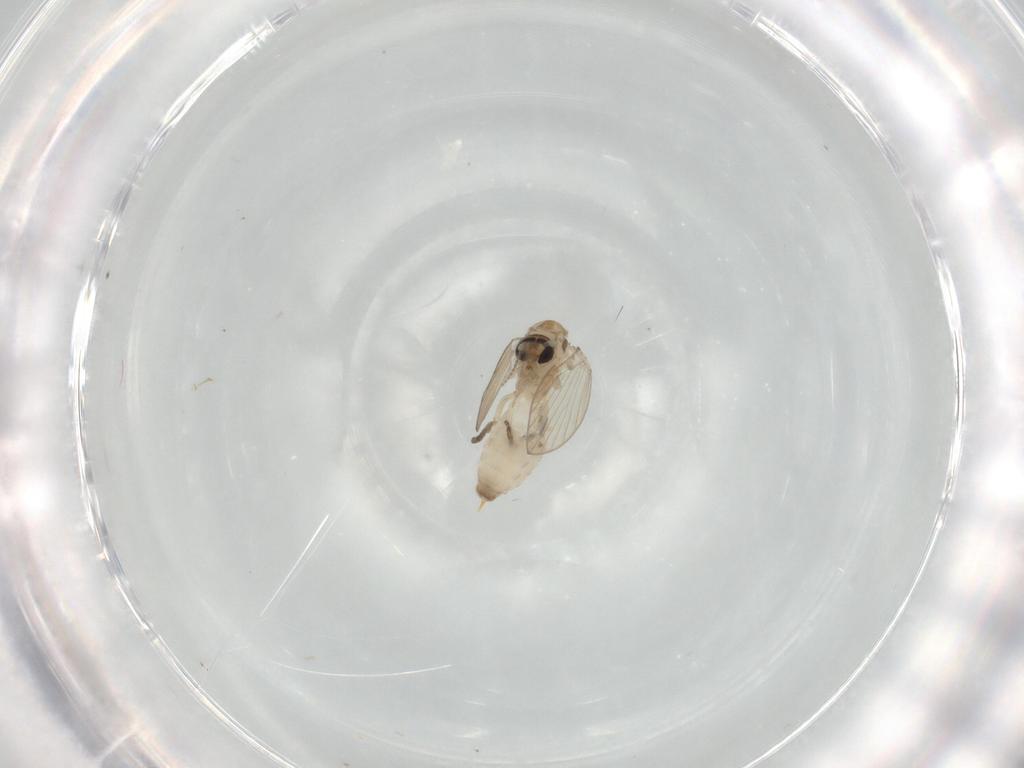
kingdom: Animalia
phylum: Arthropoda
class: Insecta
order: Diptera
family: Psychodidae
